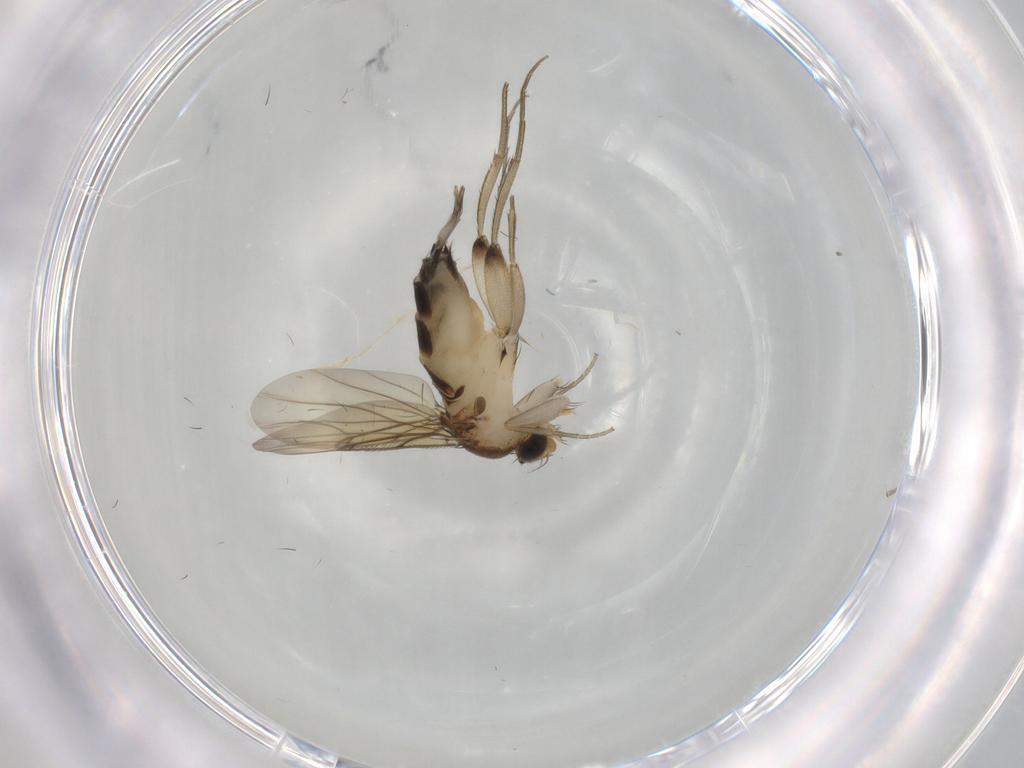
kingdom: Animalia
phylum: Arthropoda
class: Insecta
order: Diptera
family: Phoridae
